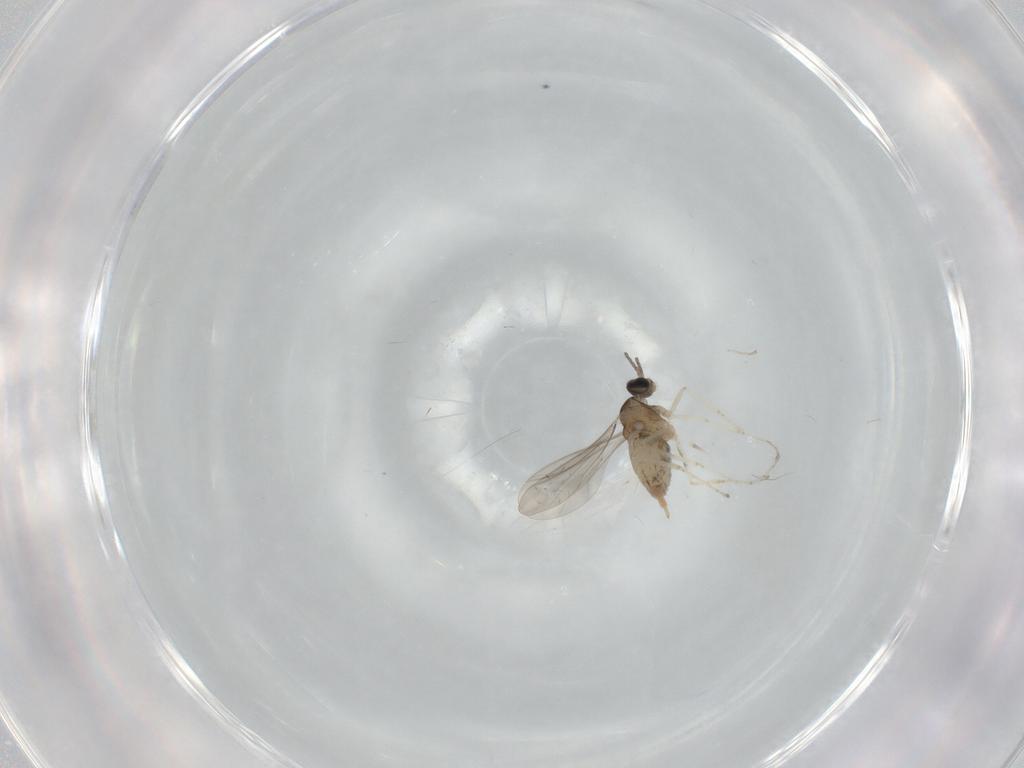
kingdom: Animalia
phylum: Arthropoda
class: Insecta
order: Diptera
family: Cecidomyiidae
